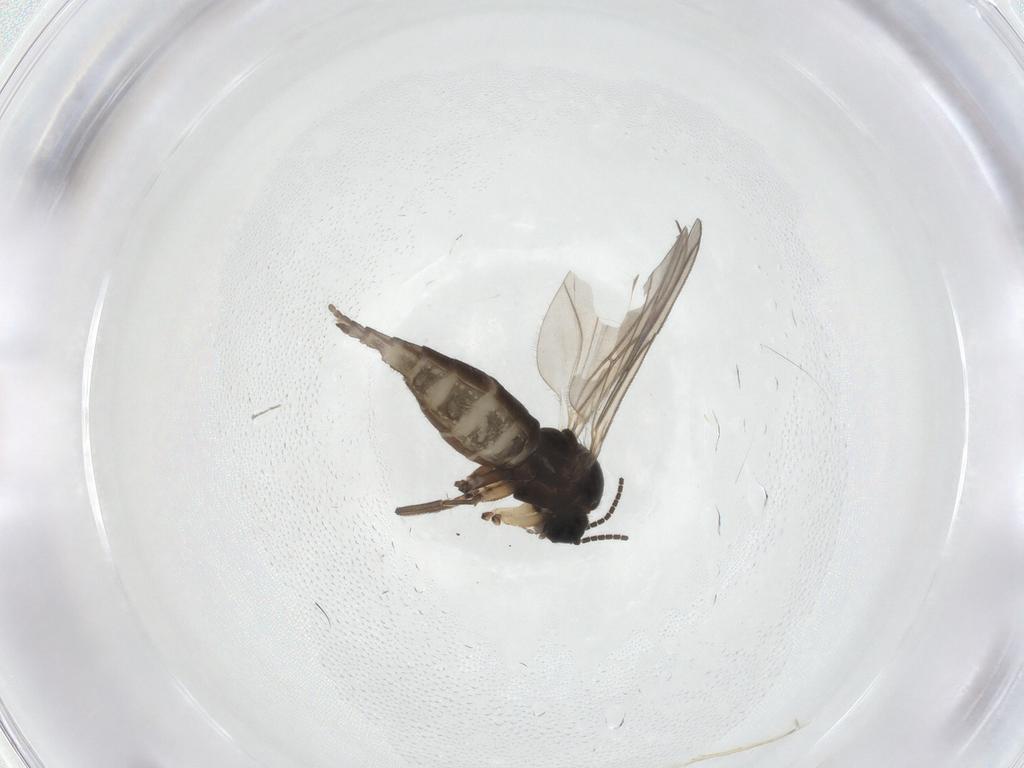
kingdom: Animalia
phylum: Arthropoda
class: Insecta
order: Diptera
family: Sciaridae
